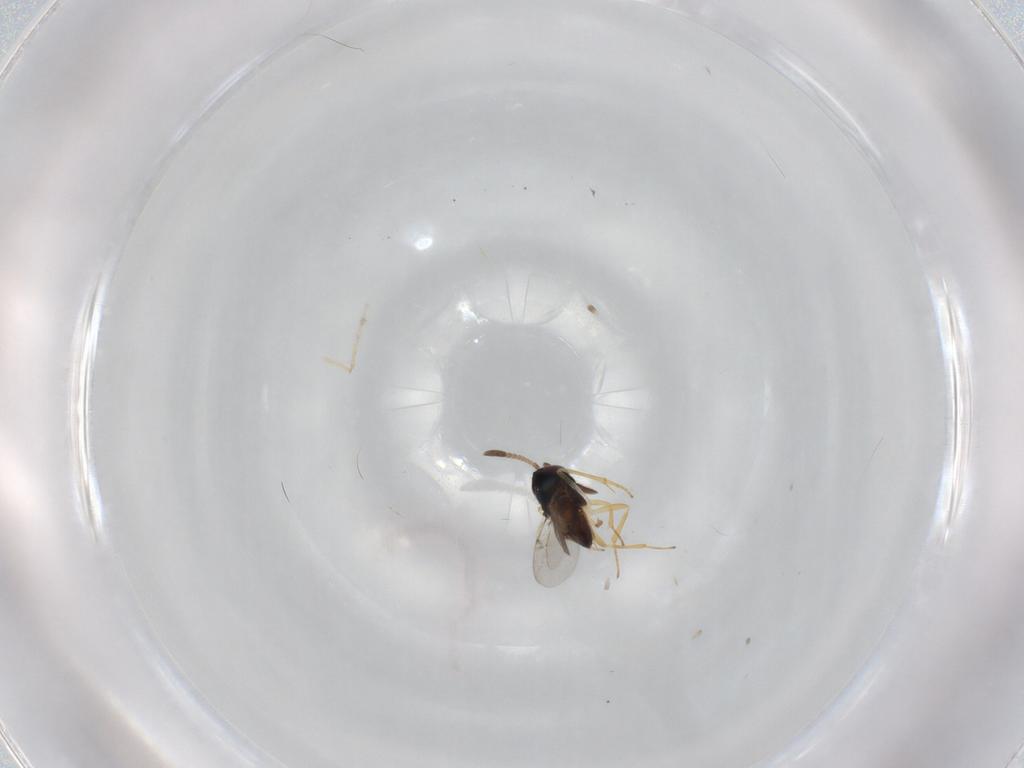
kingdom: Animalia
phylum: Arthropoda
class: Insecta
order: Hymenoptera
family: Encyrtidae
